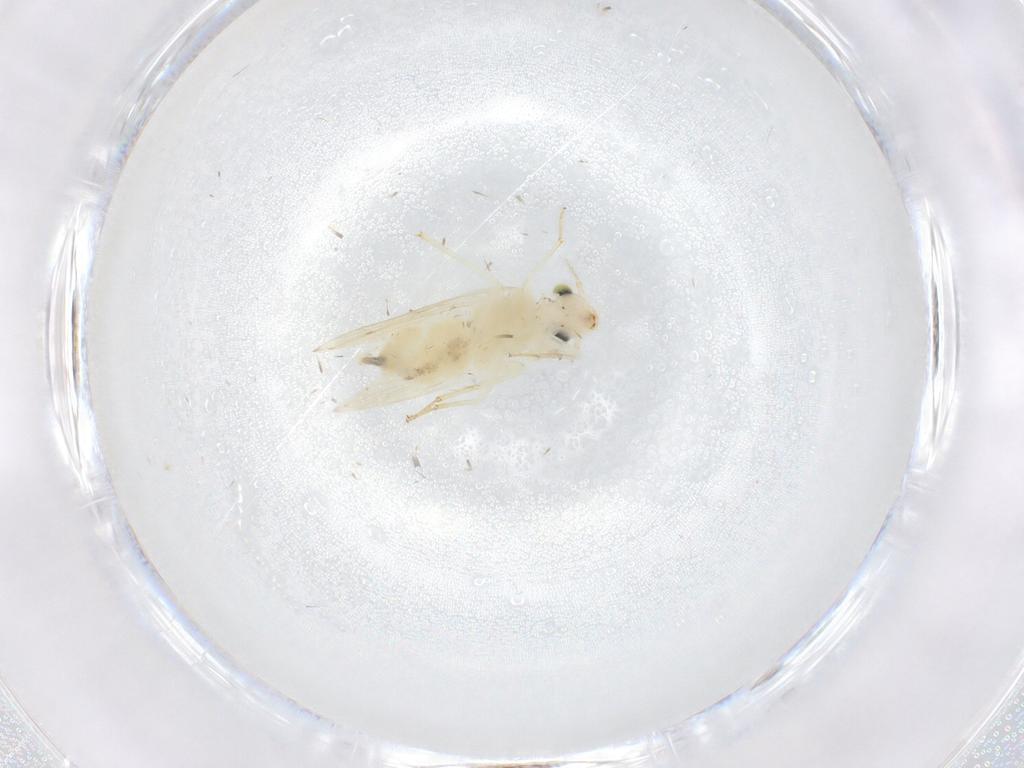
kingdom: Animalia
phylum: Arthropoda
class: Insecta
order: Psocodea
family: Lepidopsocidae
